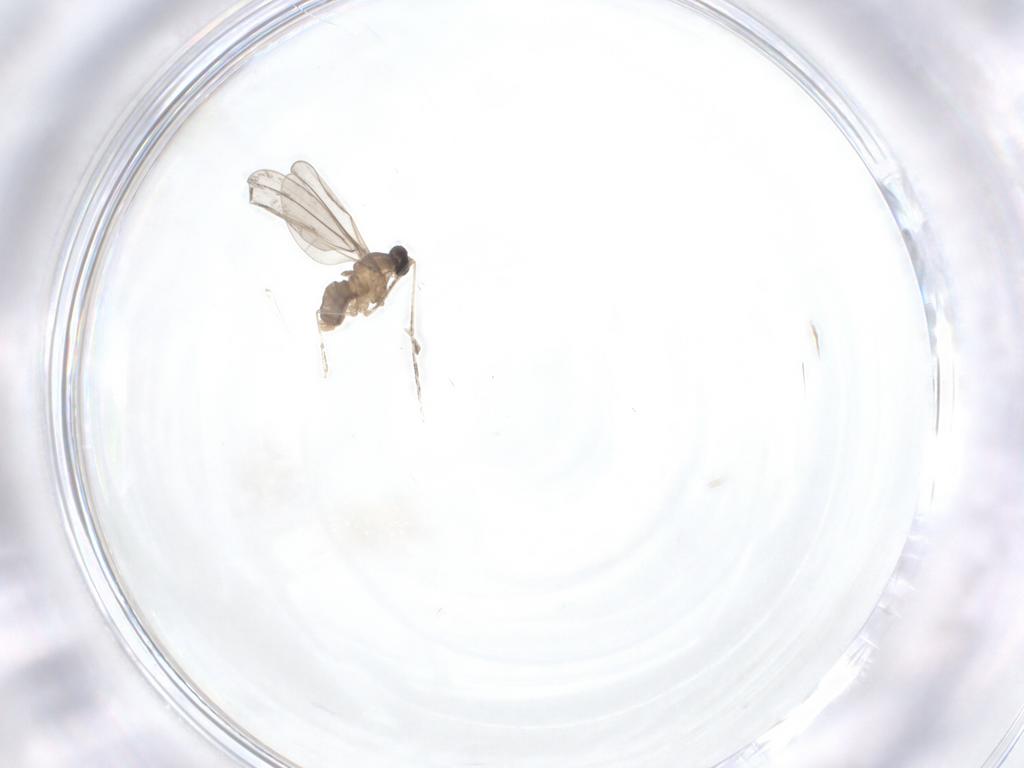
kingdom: Animalia
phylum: Arthropoda
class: Insecta
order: Diptera
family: Cecidomyiidae
